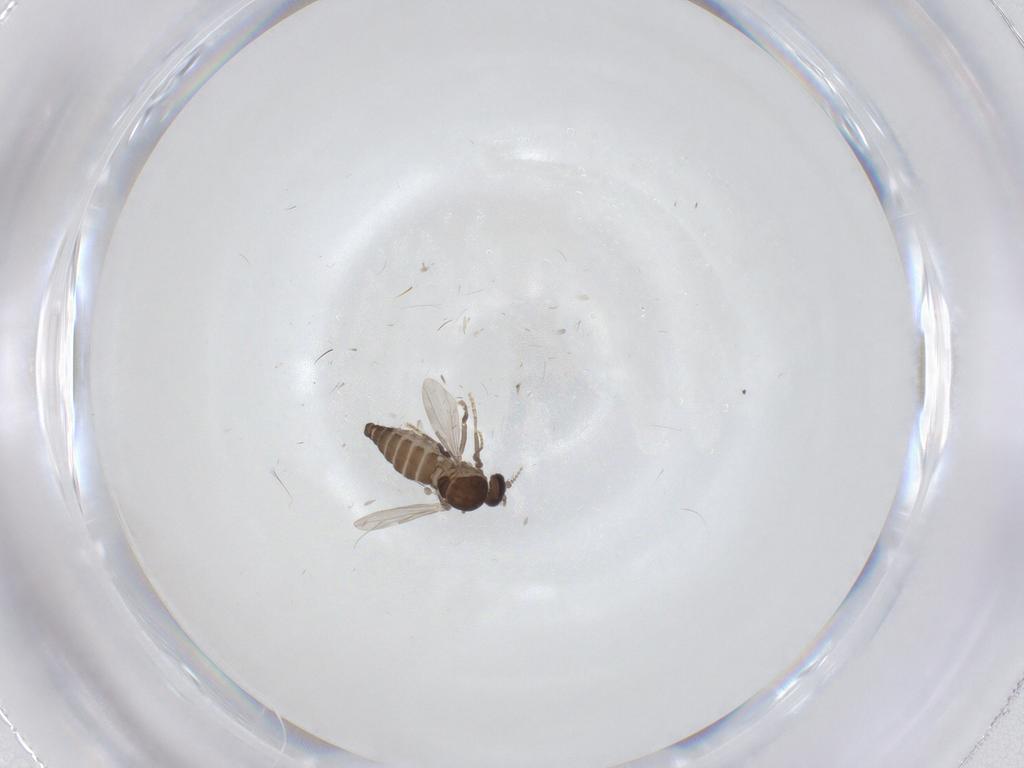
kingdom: Animalia
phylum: Arthropoda
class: Insecta
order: Diptera
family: Ceratopogonidae
